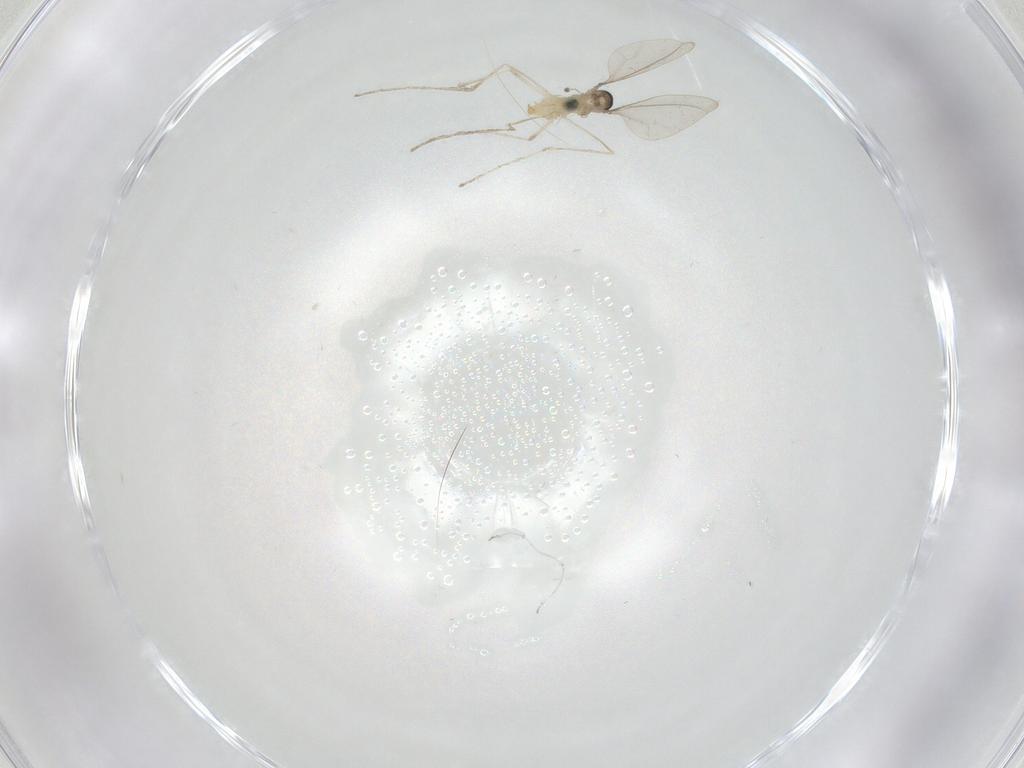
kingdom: Animalia
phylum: Arthropoda
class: Insecta
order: Diptera
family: Cecidomyiidae
